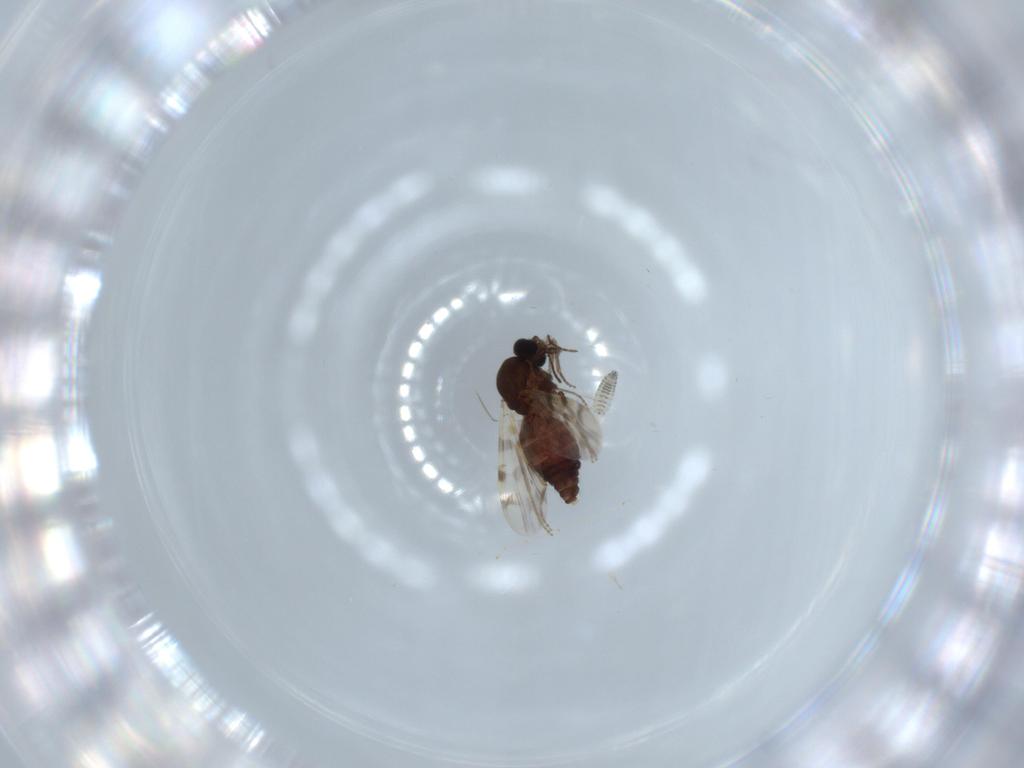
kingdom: Animalia
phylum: Arthropoda
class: Insecta
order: Diptera
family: Ceratopogonidae
